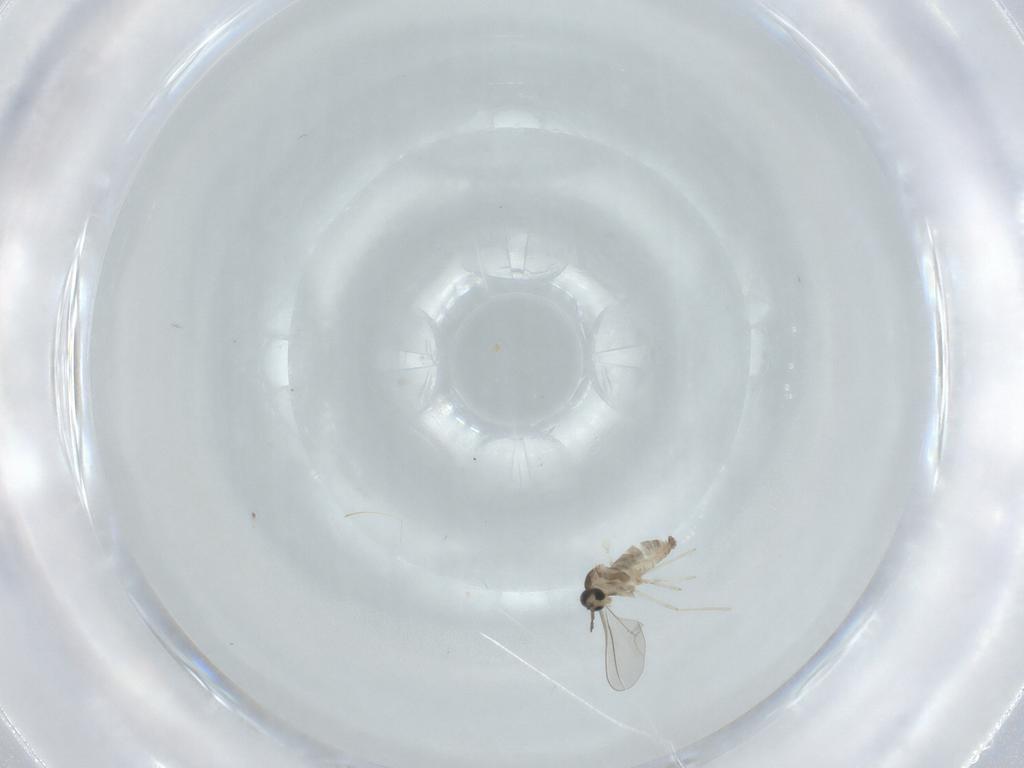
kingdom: Animalia
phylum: Arthropoda
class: Insecta
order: Diptera
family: Cecidomyiidae
